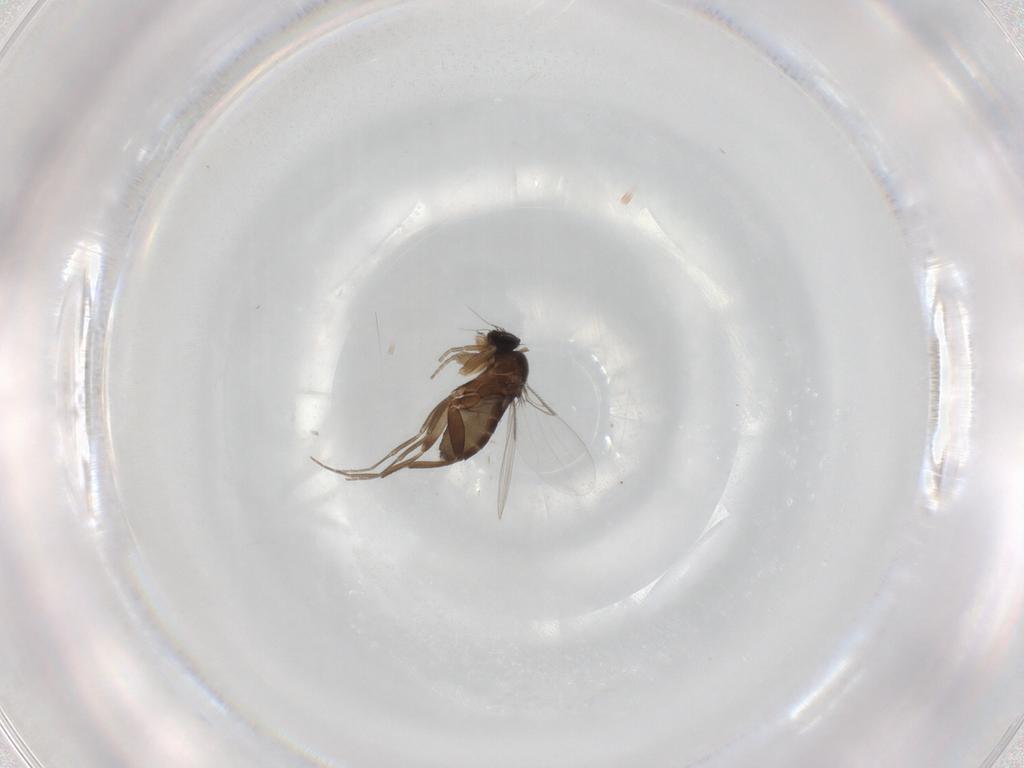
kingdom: Animalia
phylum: Arthropoda
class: Insecta
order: Diptera
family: Phoridae
